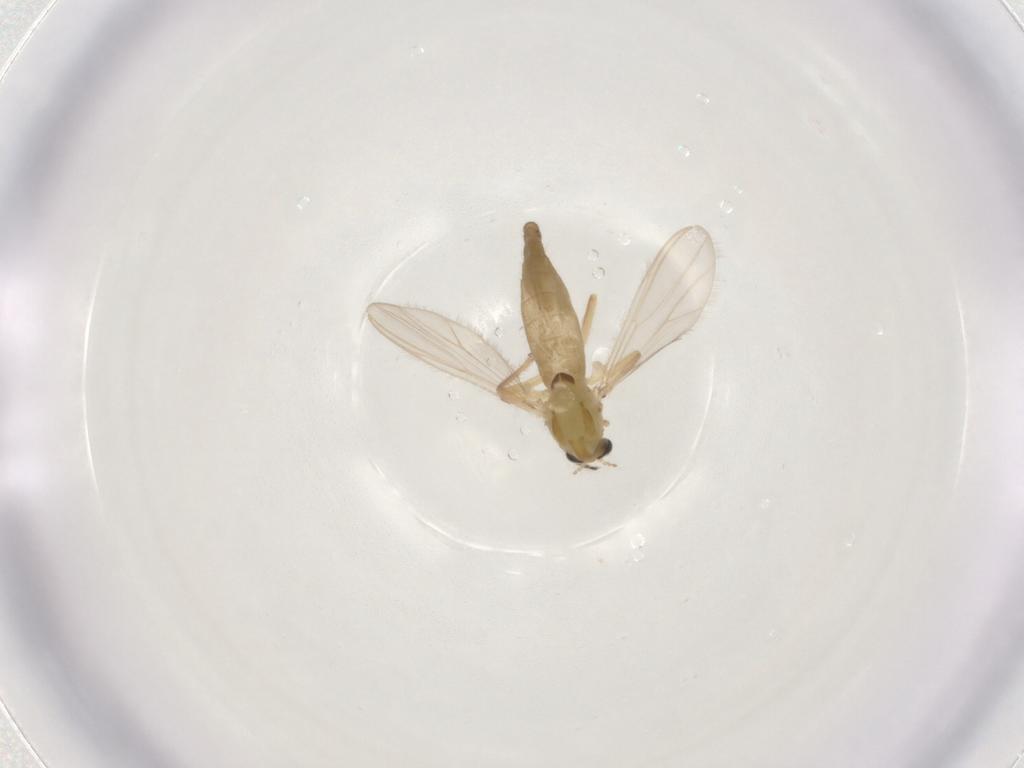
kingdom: Animalia
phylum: Arthropoda
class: Insecta
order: Diptera
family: Chironomidae
